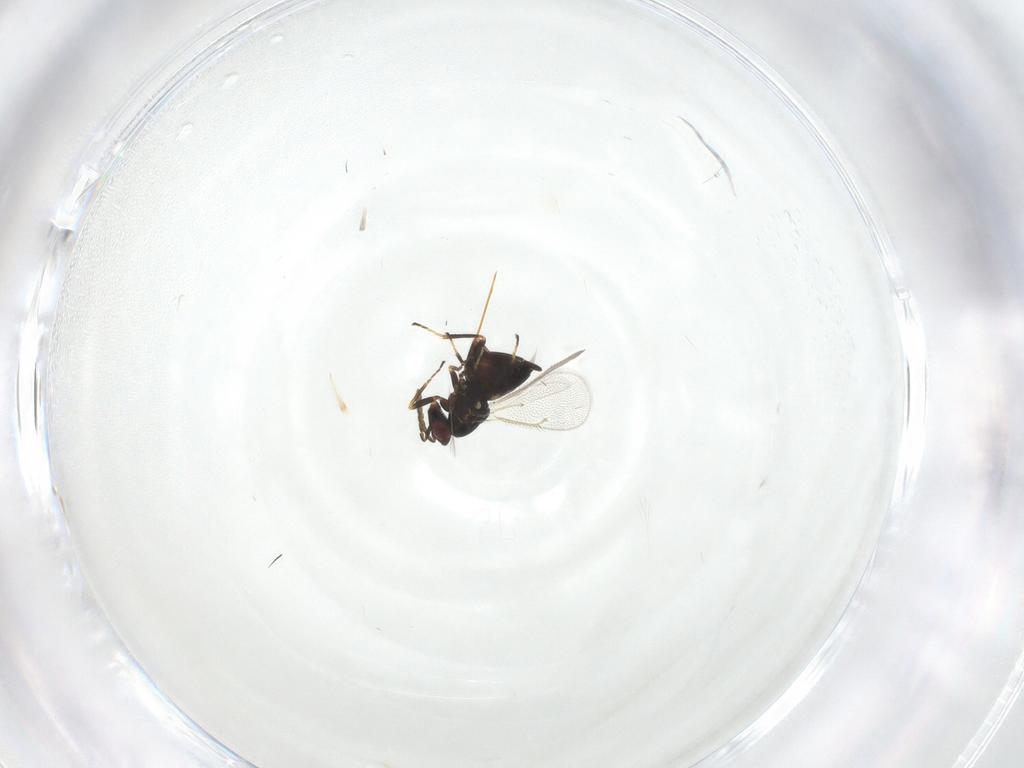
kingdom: Animalia
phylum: Arthropoda
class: Insecta
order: Hymenoptera
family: Eulophidae
